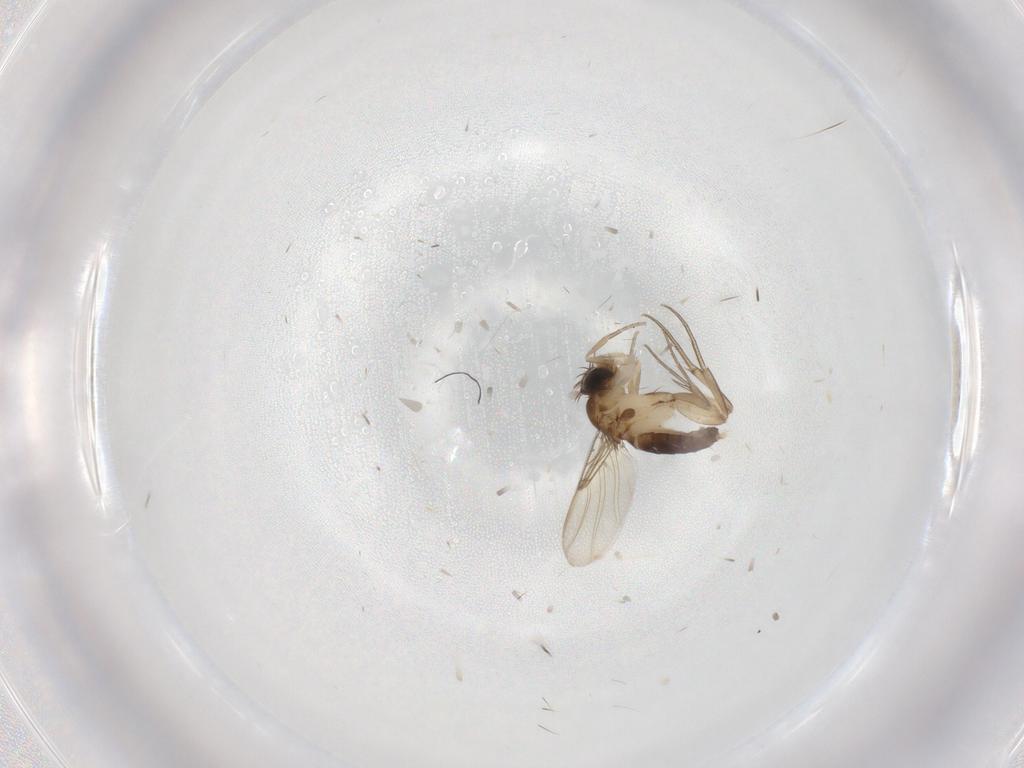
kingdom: Animalia
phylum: Arthropoda
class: Insecta
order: Diptera
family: Phoridae
